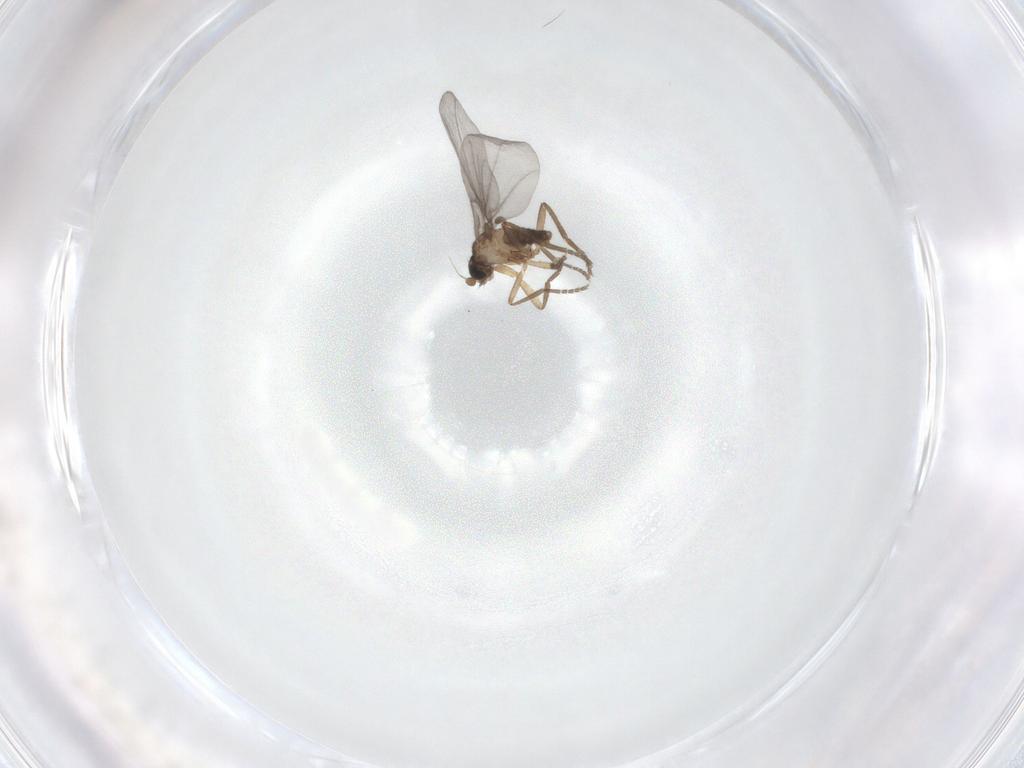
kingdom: Animalia
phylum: Arthropoda
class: Insecta
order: Diptera
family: Phoridae
